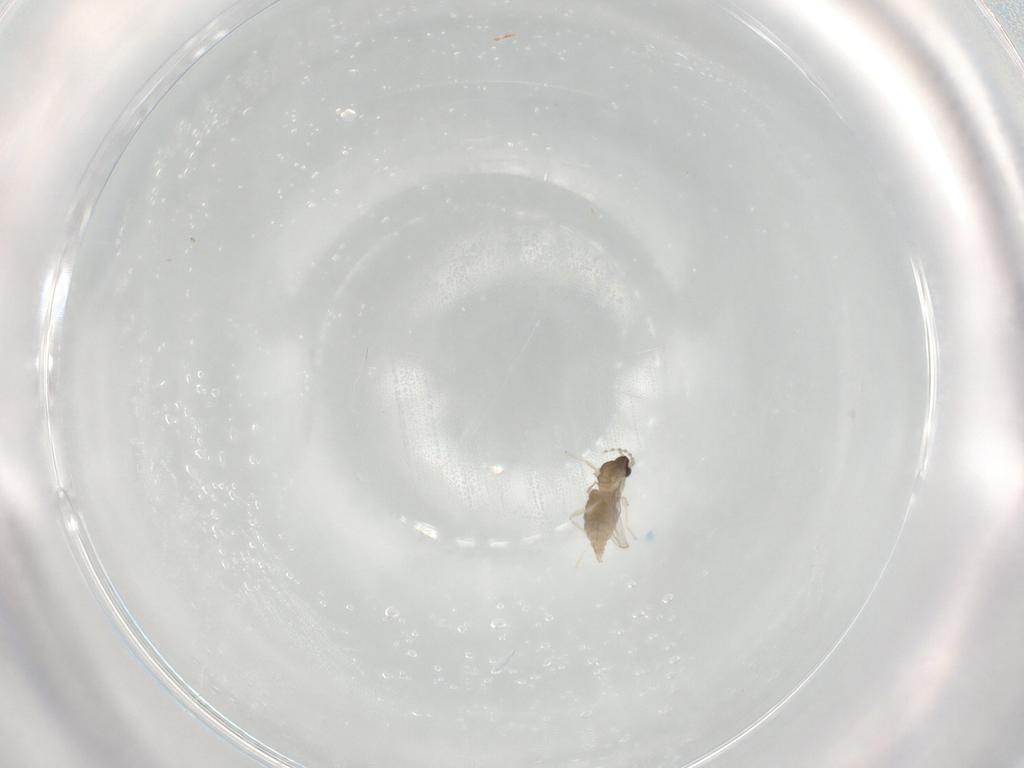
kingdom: Animalia
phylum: Arthropoda
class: Insecta
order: Diptera
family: Cecidomyiidae
